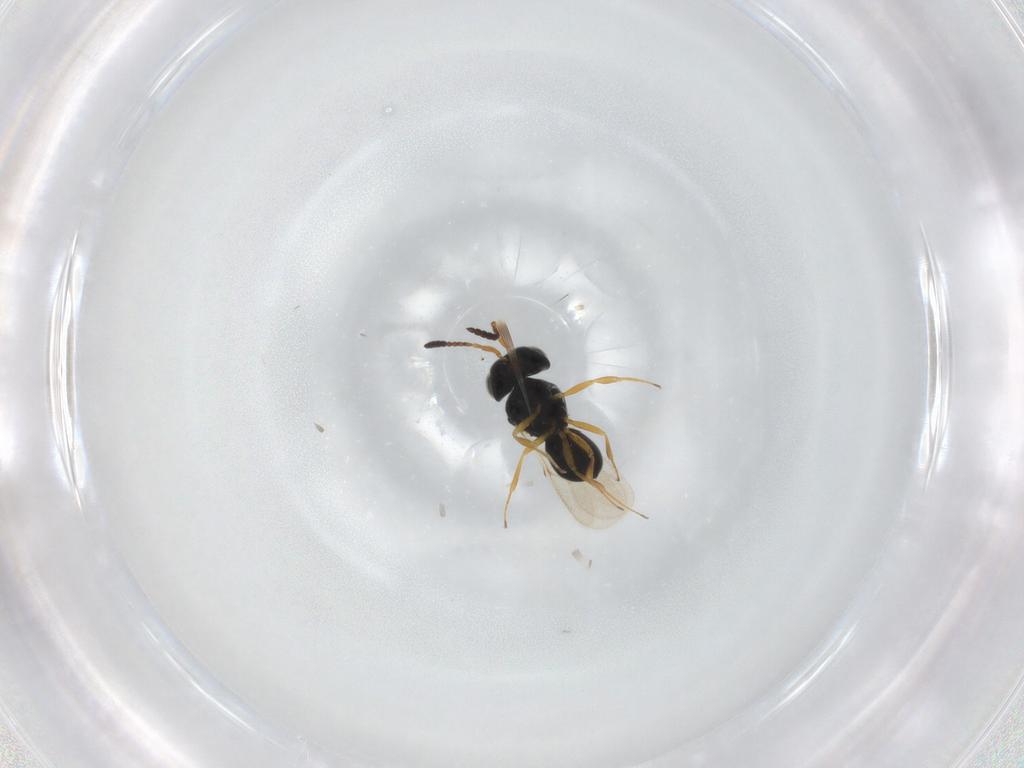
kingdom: Animalia
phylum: Arthropoda
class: Insecta
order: Hymenoptera
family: Scelionidae
